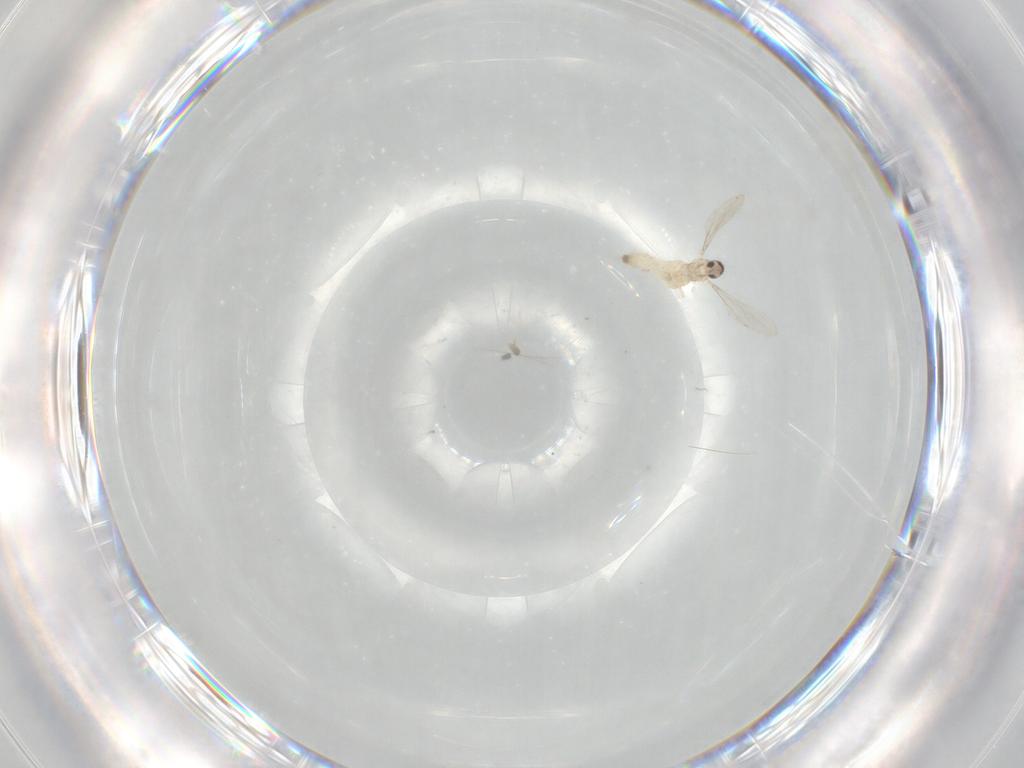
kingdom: Animalia
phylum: Arthropoda
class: Insecta
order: Diptera
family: Cecidomyiidae
